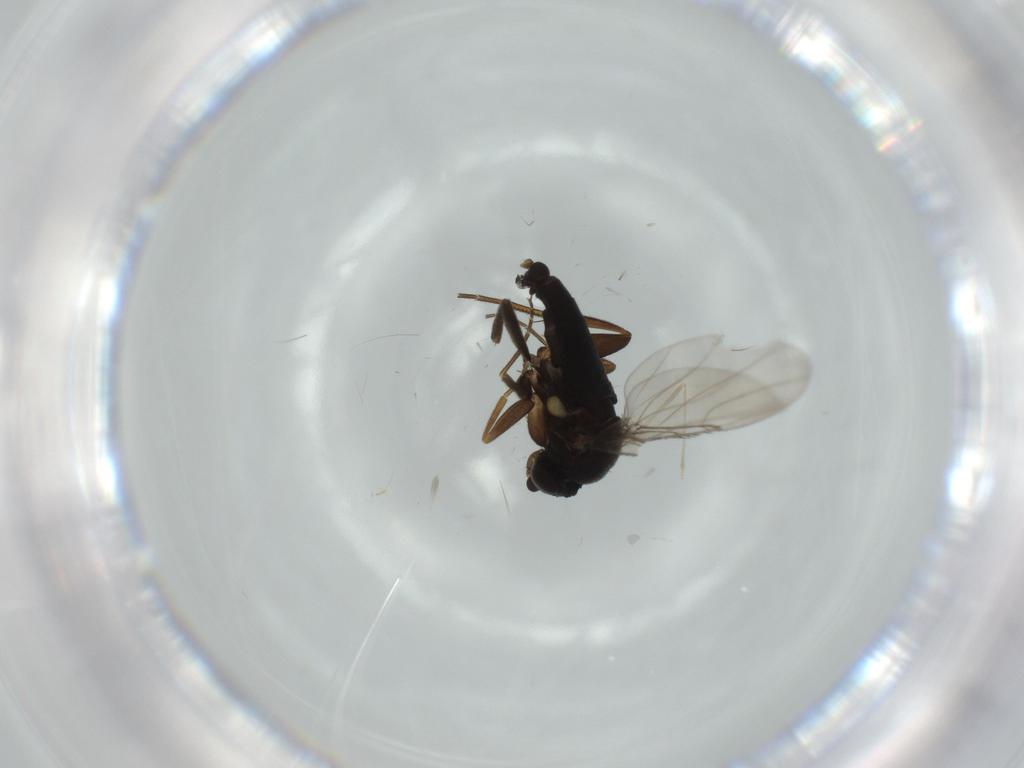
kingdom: Animalia
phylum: Arthropoda
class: Insecta
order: Diptera
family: Phoridae
